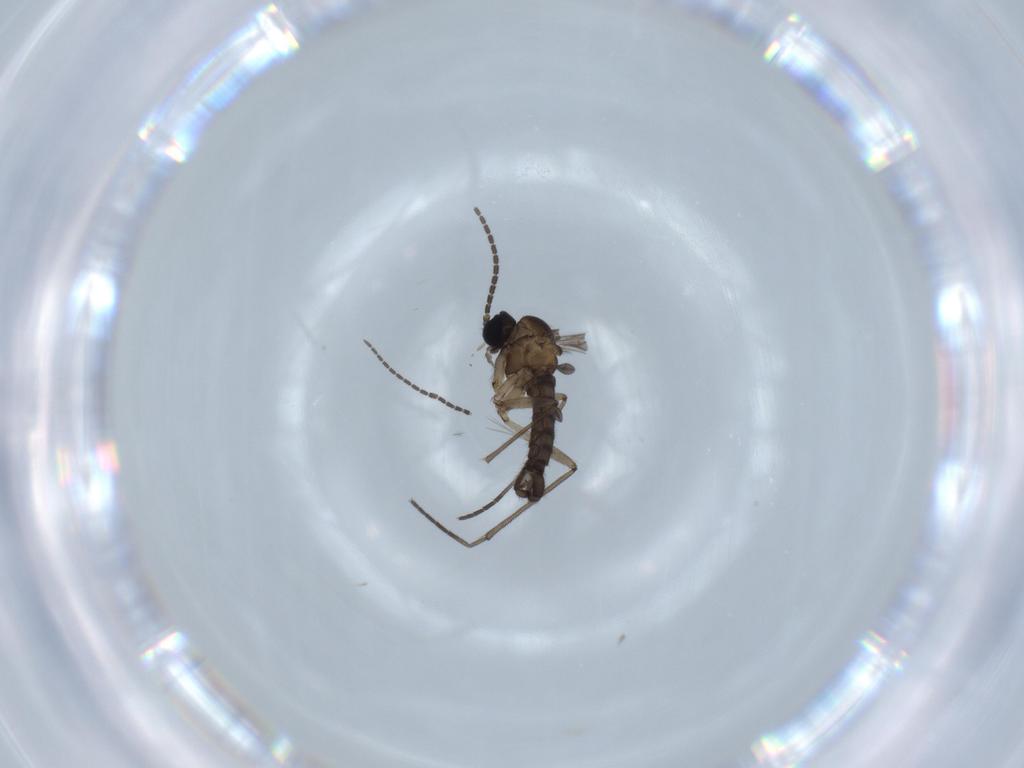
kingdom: Animalia
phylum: Arthropoda
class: Insecta
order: Diptera
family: Sciaridae
